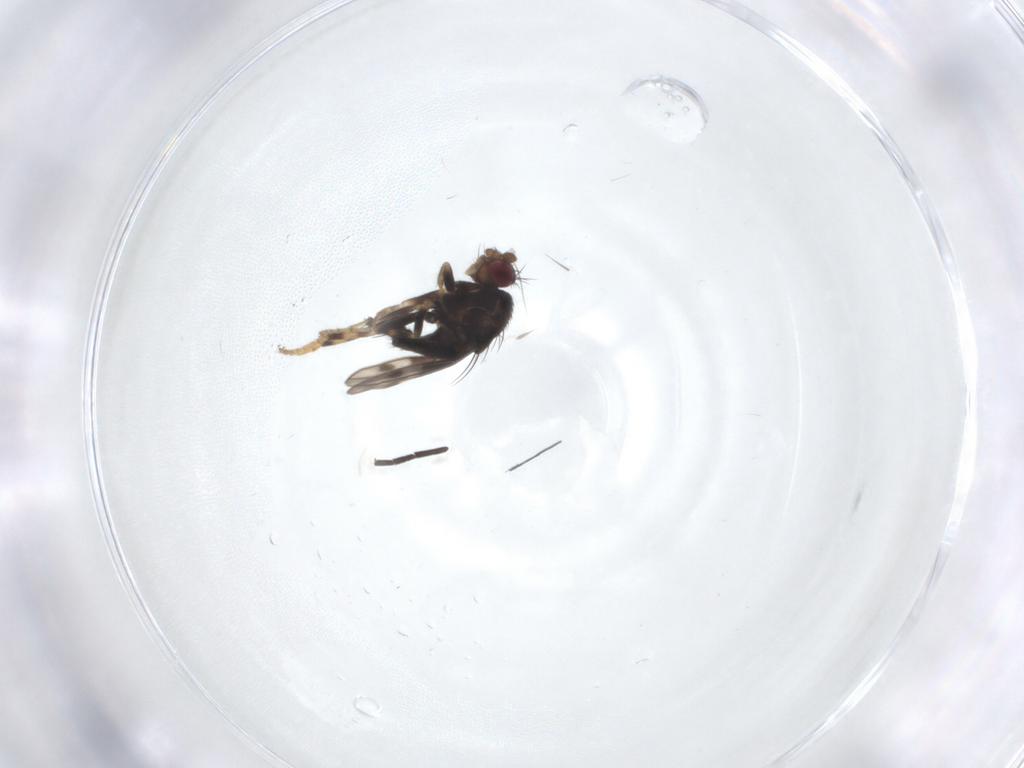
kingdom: Animalia
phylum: Arthropoda
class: Insecta
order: Diptera
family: Sphaeroceridae
